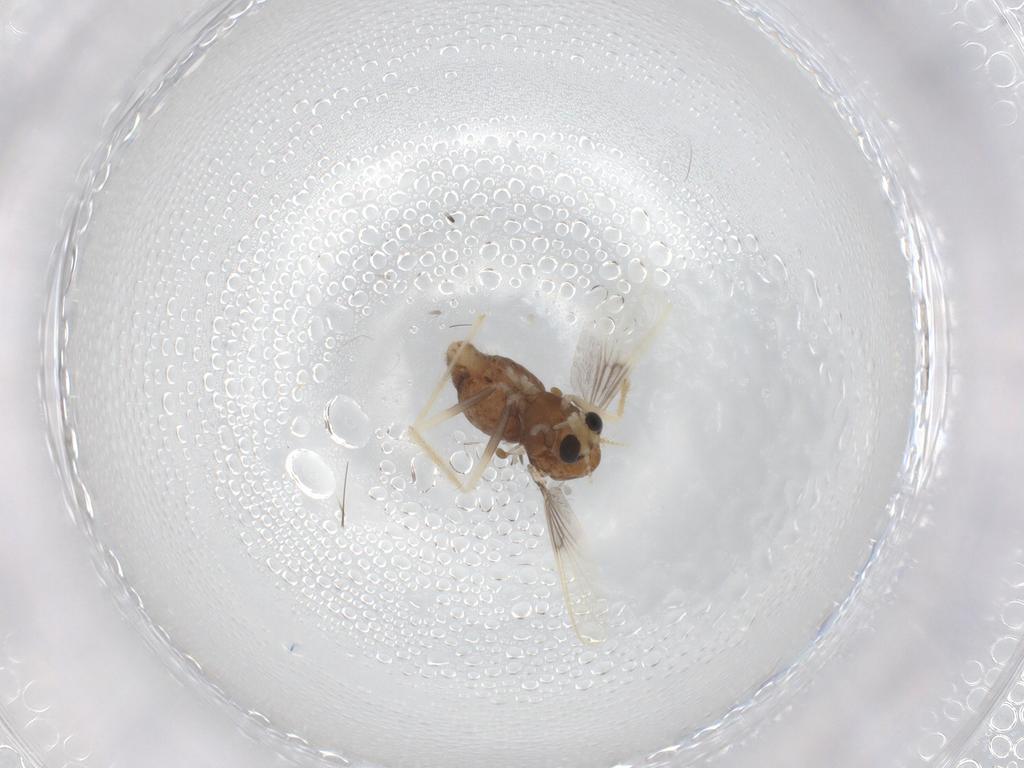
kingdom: Animalia
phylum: Arthropoda
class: Insecta
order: Diptera
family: Chironomidae
